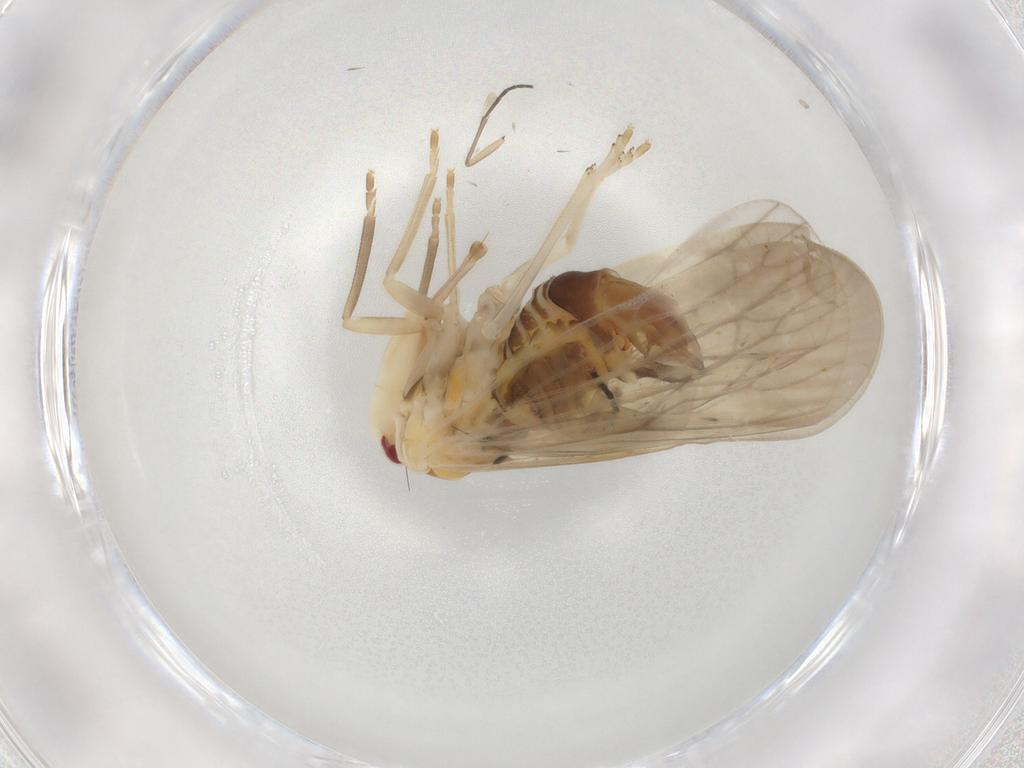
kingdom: Animalia
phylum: Arthropoda
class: Insecta
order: Hemiptera
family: Derbidae
